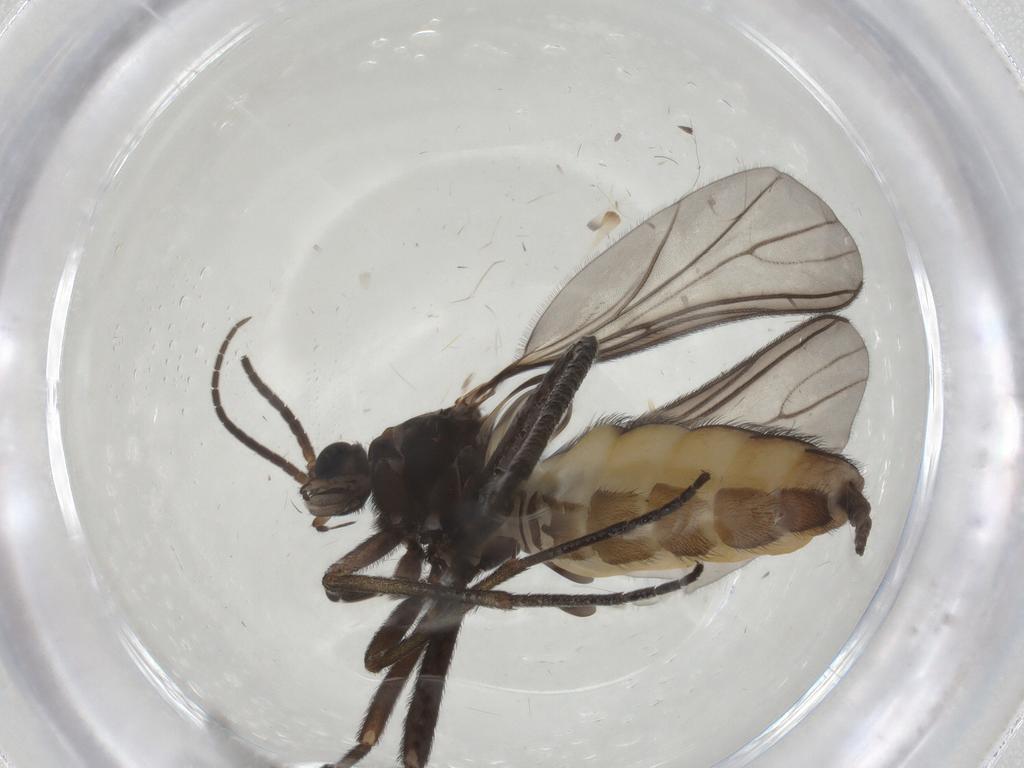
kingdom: Animalia
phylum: Arthropoda
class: Insecta
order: Diptera
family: Sciaridae
